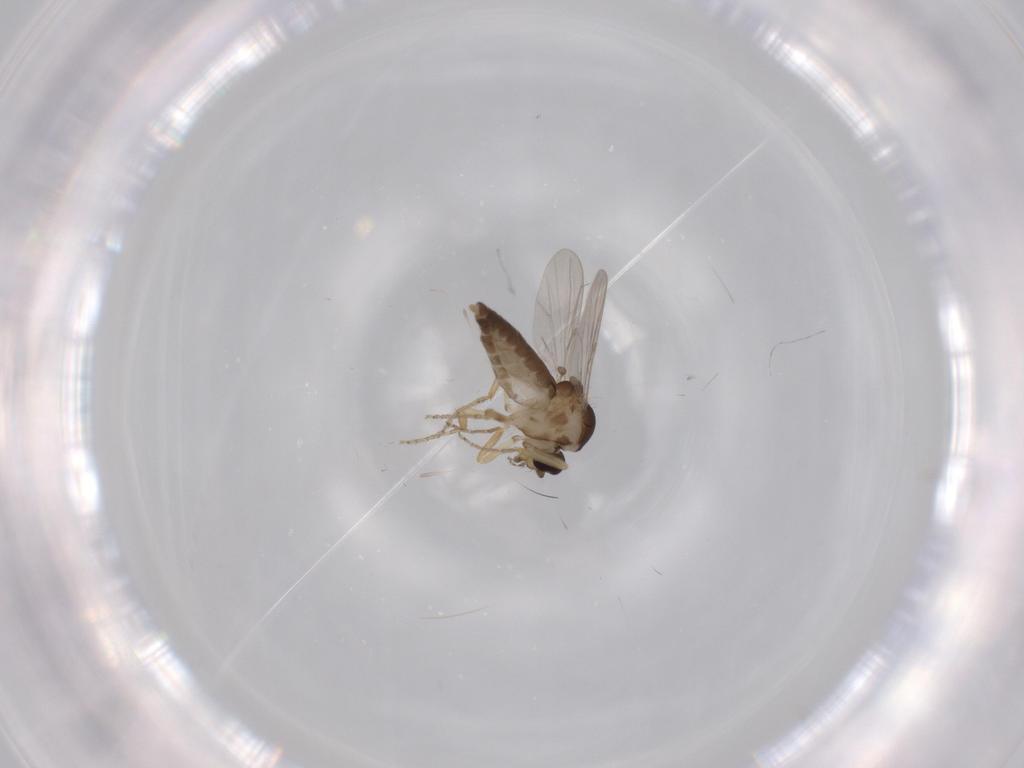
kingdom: Animalia
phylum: Arthropoda
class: Insecta
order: Diptera
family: Ceratopogonidae
